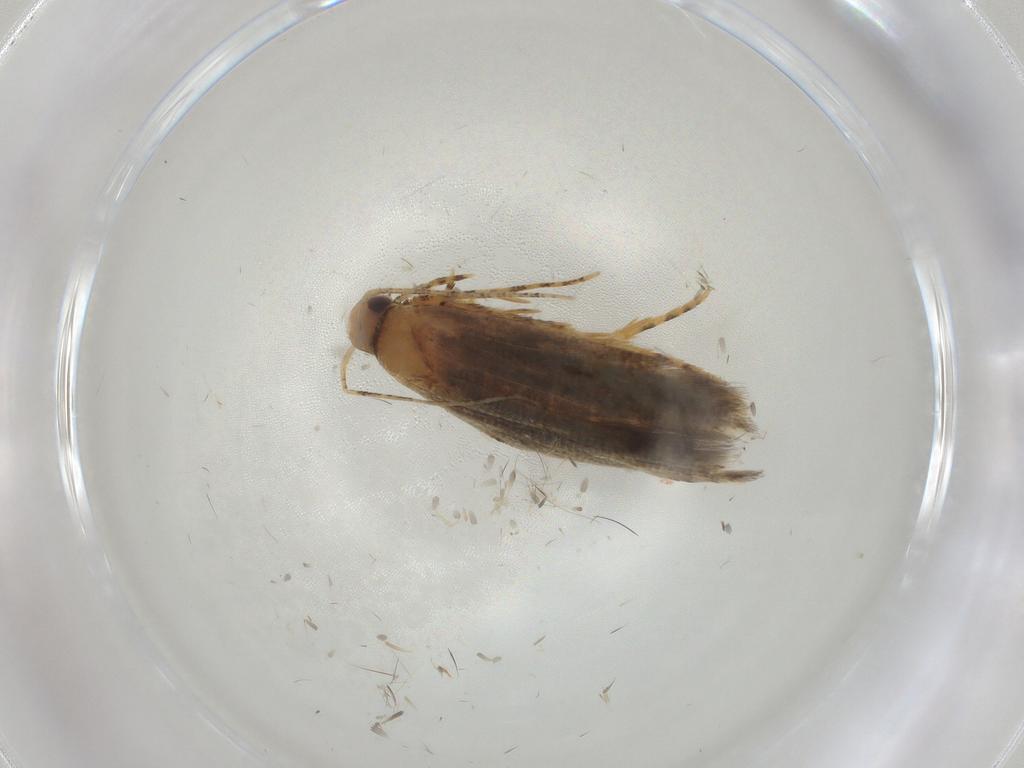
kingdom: Animalia
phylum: Arthropoda
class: Insecta
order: Lepidoptera
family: Gelechiidae
